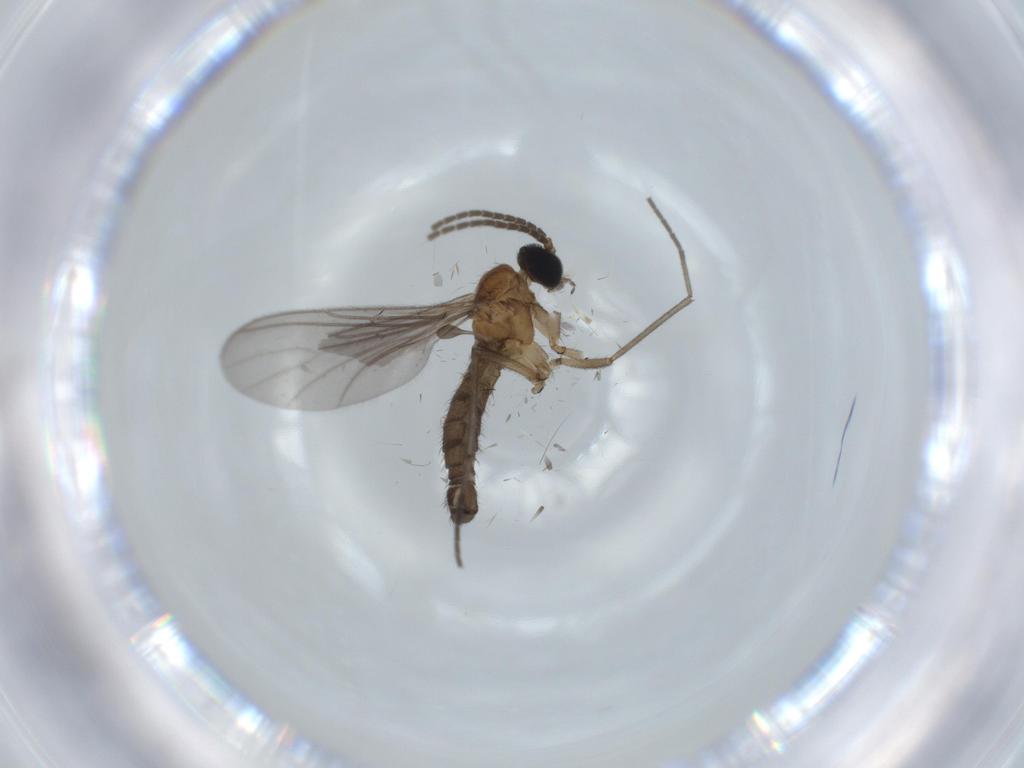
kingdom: Animalia
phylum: Arthropoda
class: Insecta
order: Diptera
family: Sciaridae
